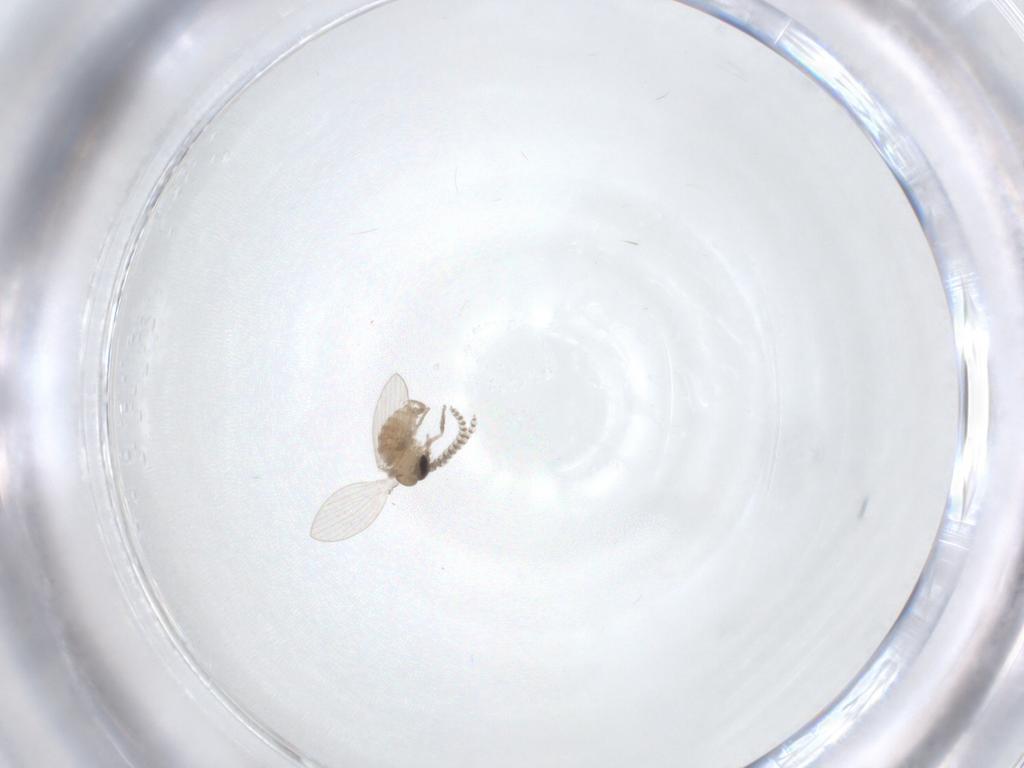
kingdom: Animalia
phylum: Arthropoda
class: Insecta
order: Diptera
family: Psychodidae
